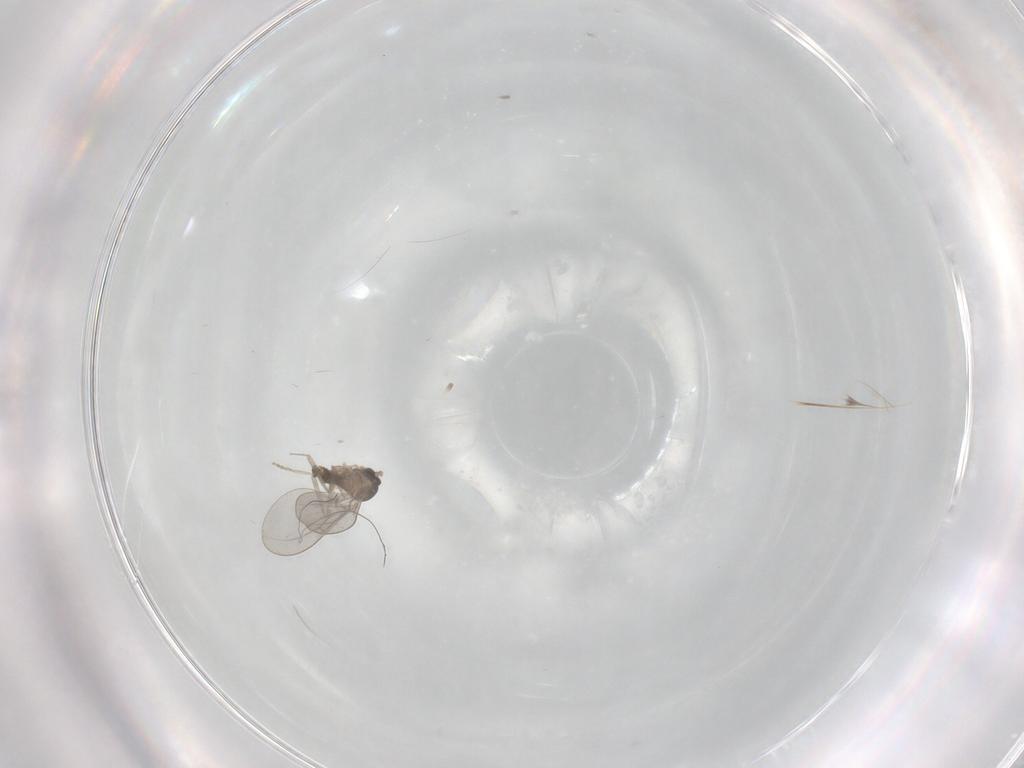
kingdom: Animalia
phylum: Arthropoda
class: Insecta
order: Diptera
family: Cecidomyiidae
